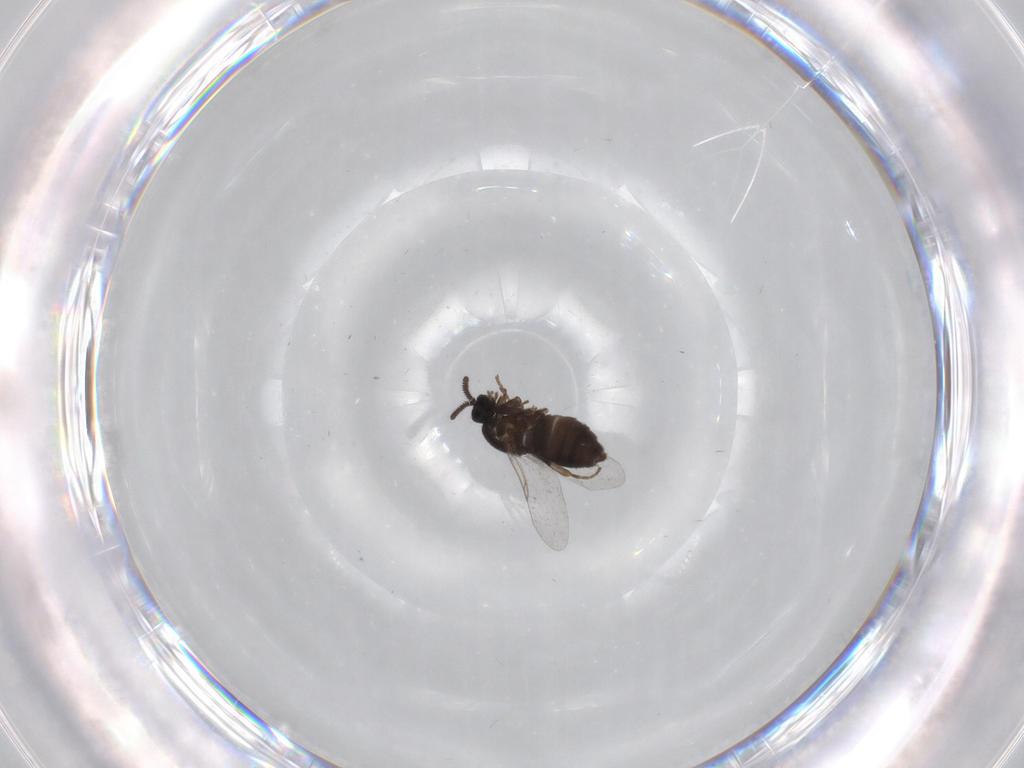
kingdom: Animalia
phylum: Arthropoda
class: Insecta
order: Diptera
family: Calliphoridae
